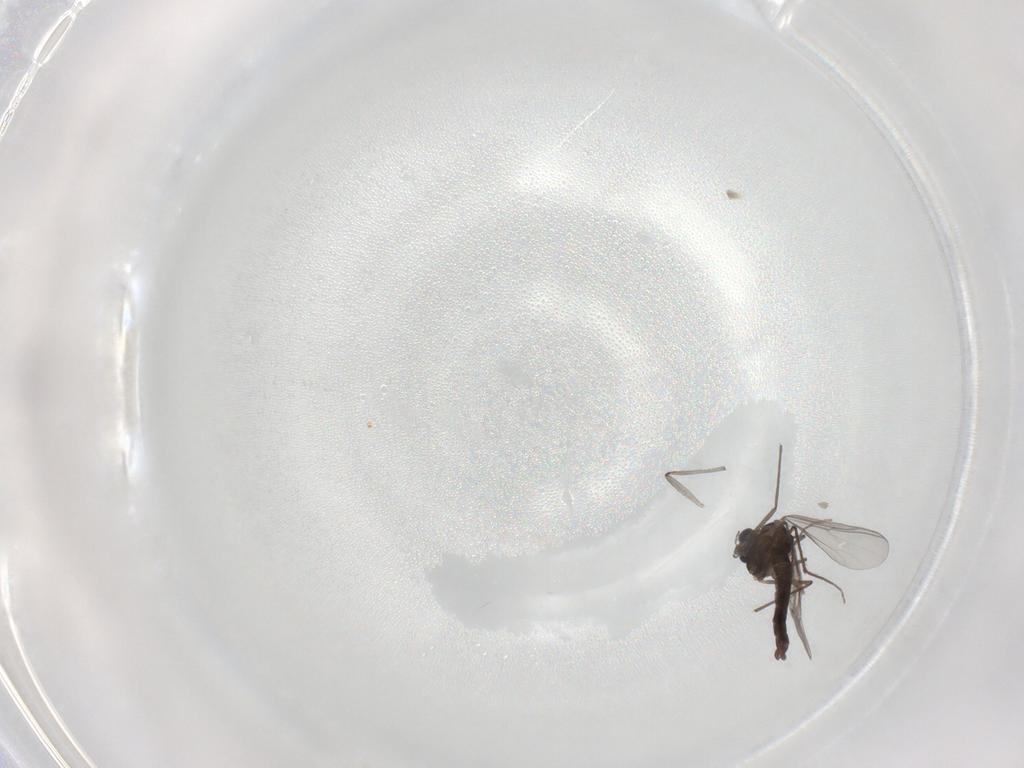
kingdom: Animalia
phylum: Arthropoda
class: Insecta
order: Diptera
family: Chironomidae
